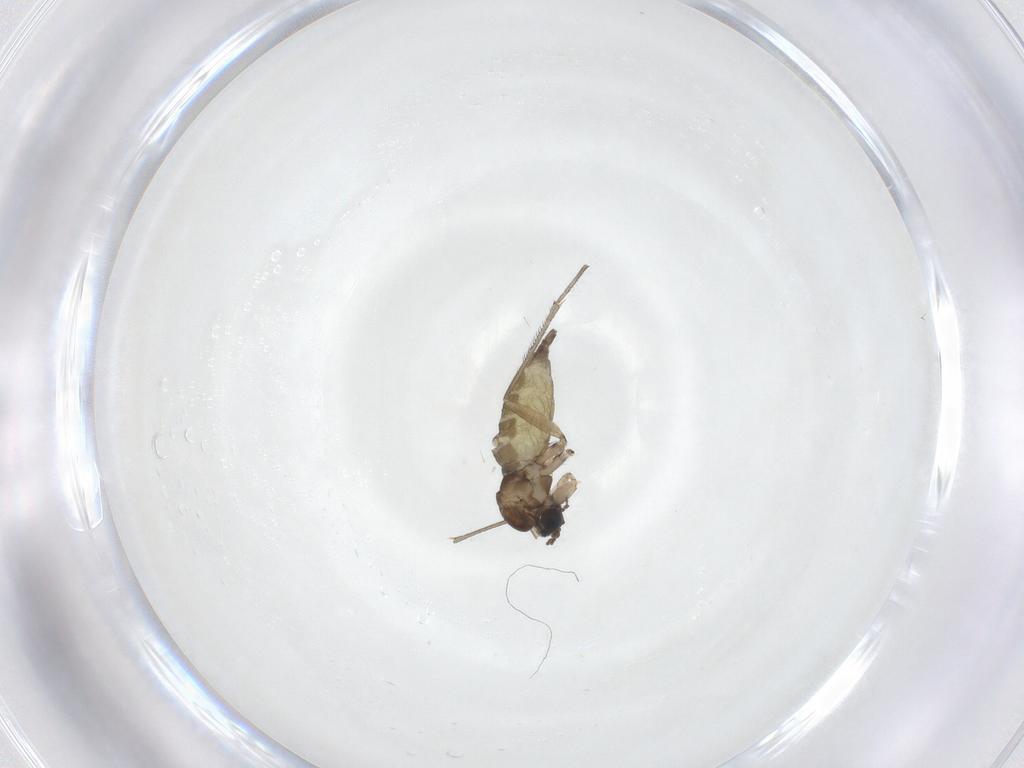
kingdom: Animalia
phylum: Arthropoda
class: Insecta
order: Diptera
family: Sciaridae
